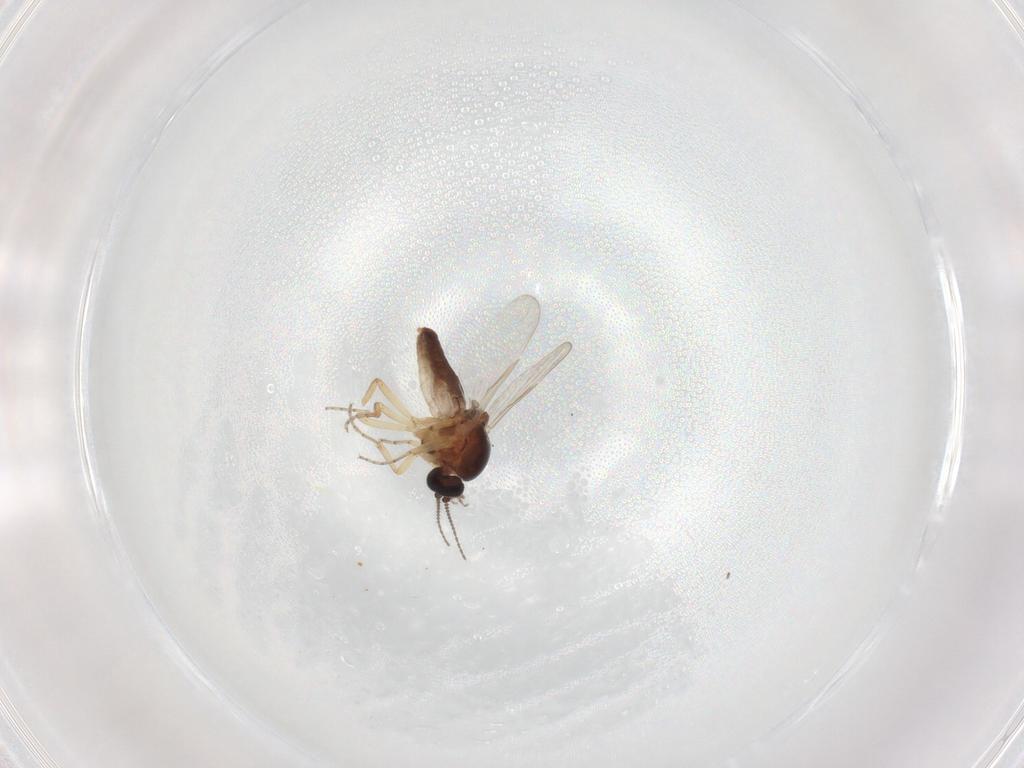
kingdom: Animalia
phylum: Arthropoda
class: Insecta
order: Diptera
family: Ceratopogonidae
